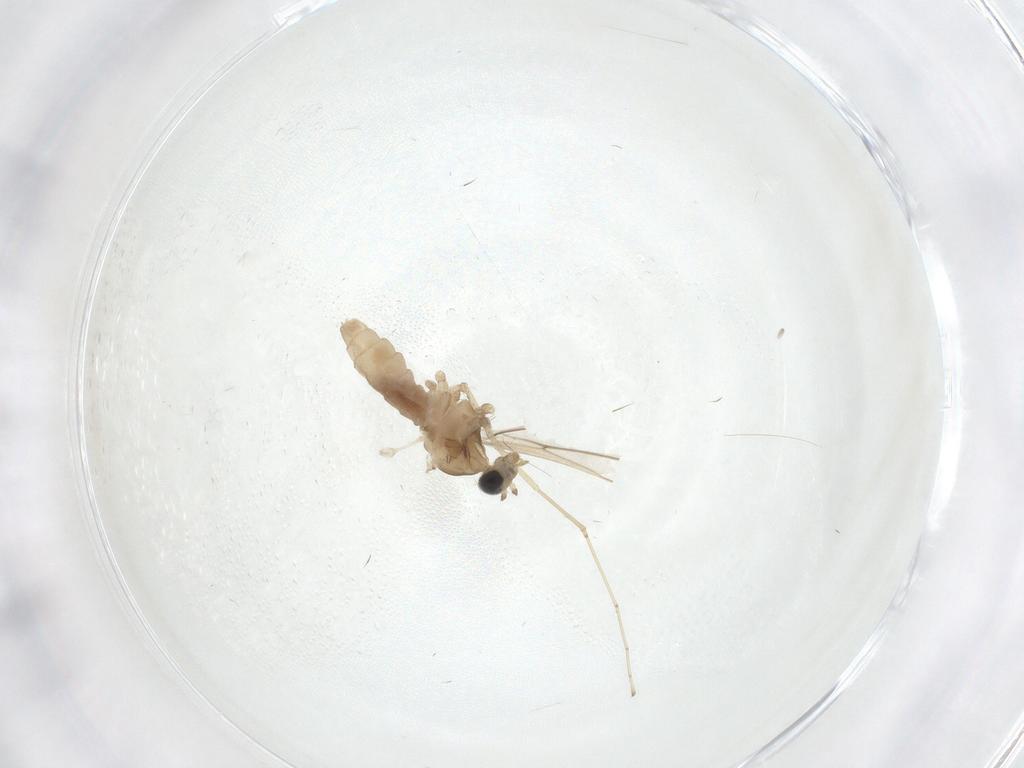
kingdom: Animalia
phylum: Arthropoda
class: Insecta
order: Diptera
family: Cecidomyiidae
